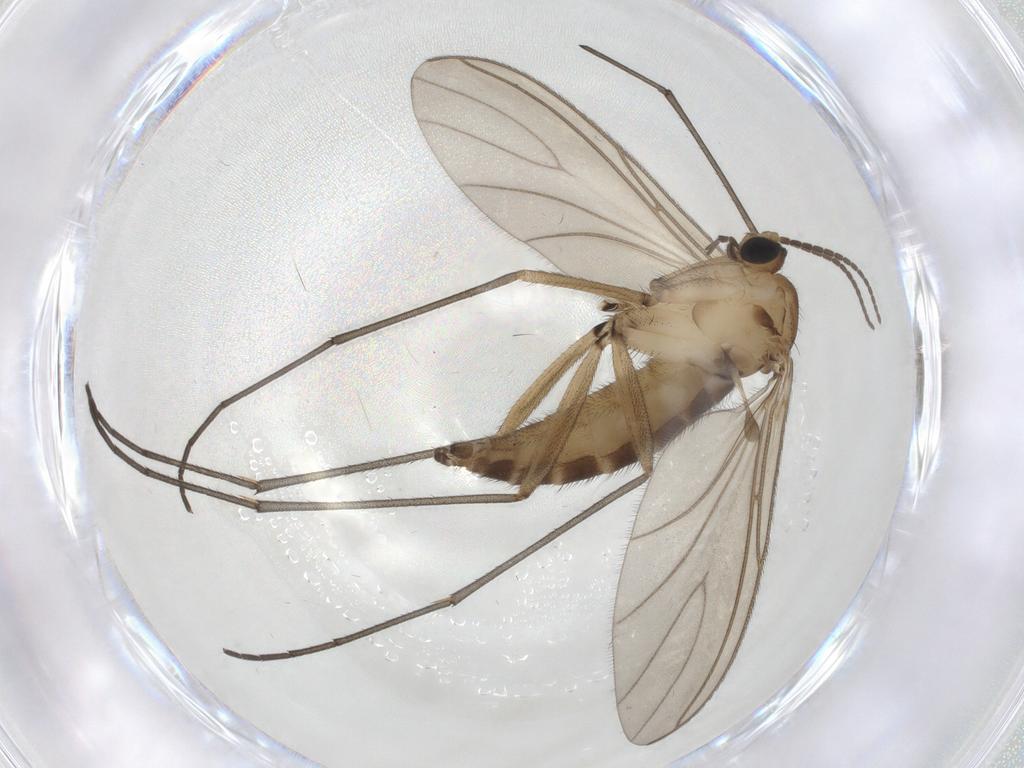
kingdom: Animalia
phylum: Arthropoda
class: Insecta
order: Diptera
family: Sciaridae
